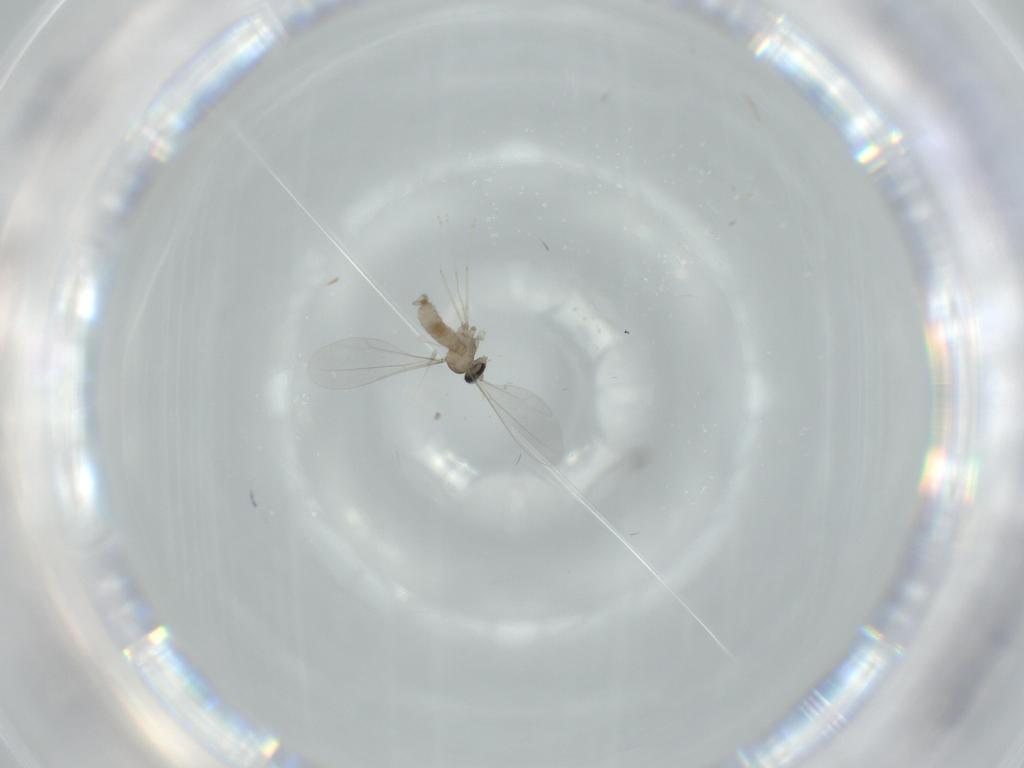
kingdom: Animalia
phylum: Arthropoda
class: Insecta
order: Diptera
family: Cecidomyiidae
